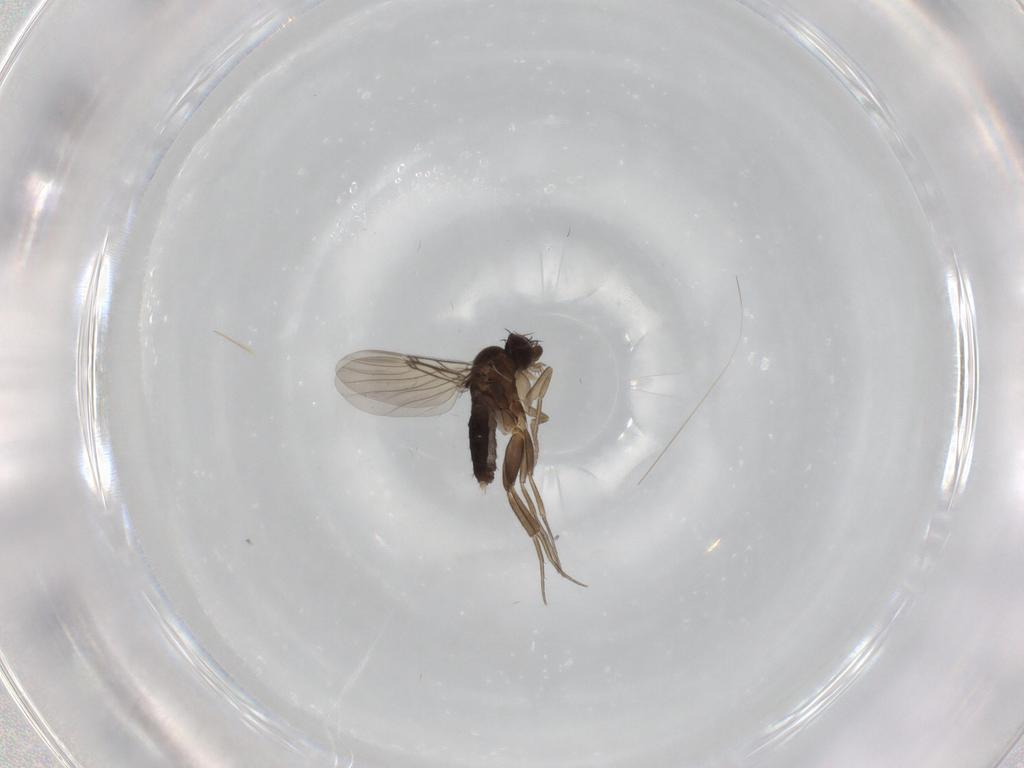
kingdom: Animalia
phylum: Arthropoda
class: Insecta
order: Diptera
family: Phoridae
